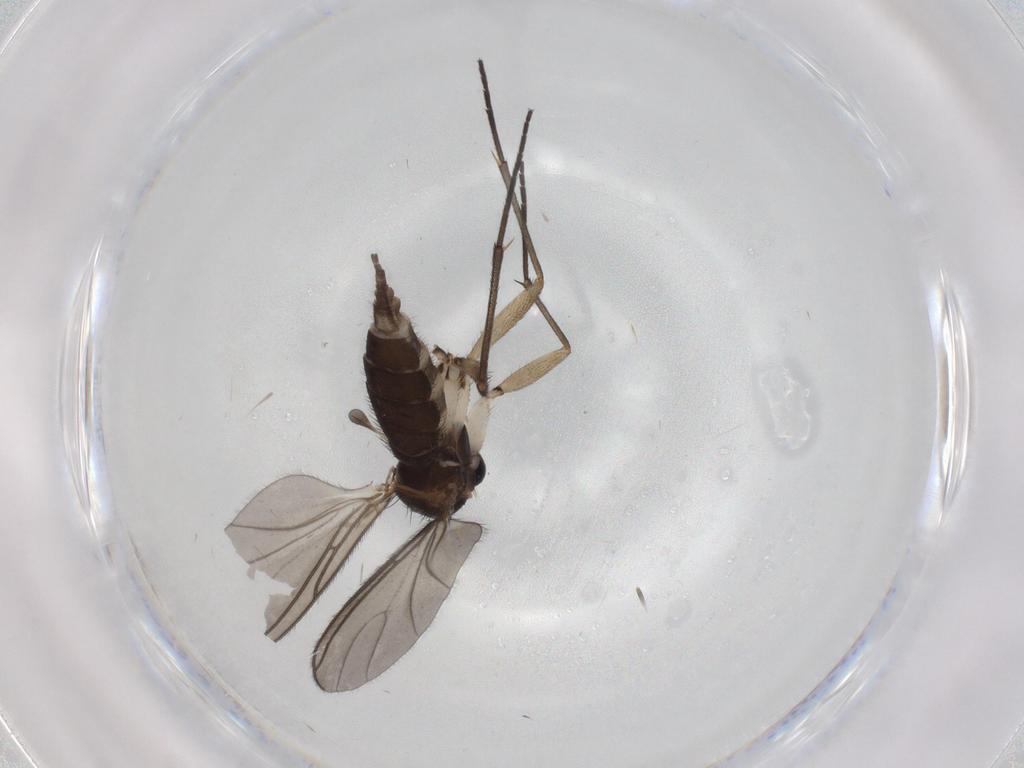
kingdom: Animalia
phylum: Arthropoda
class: Insecta
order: Diptera
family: Sciaridae
